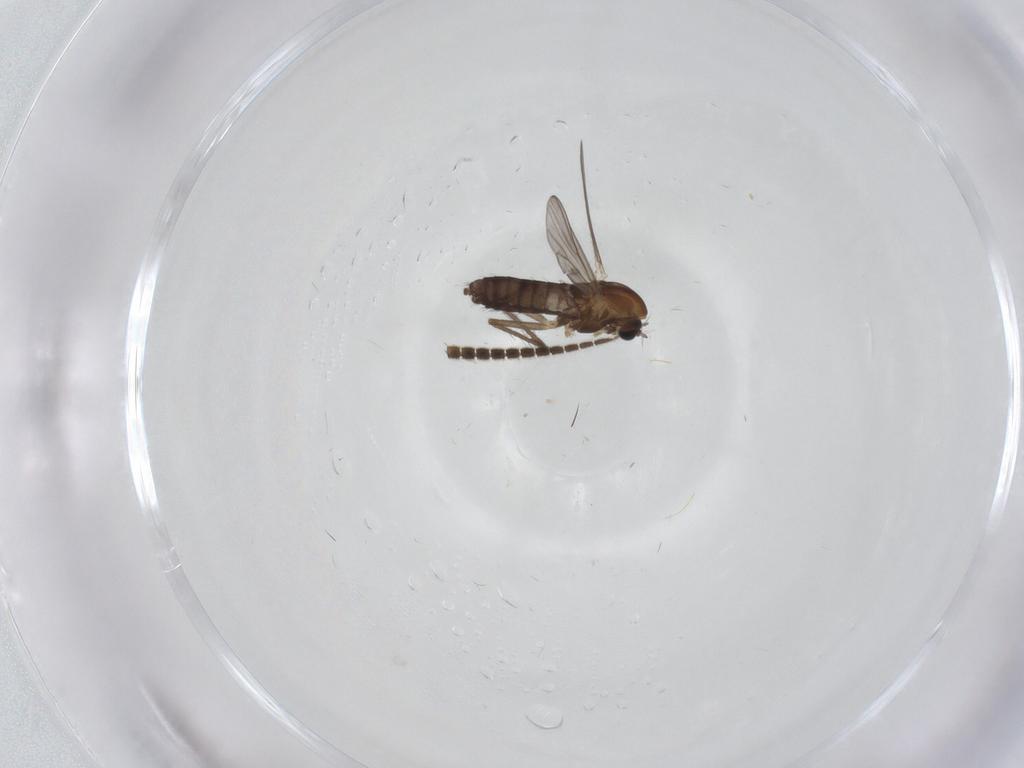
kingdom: Animalia
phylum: Arthropoda
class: Insecta
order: Diptera
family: Chironomidae
